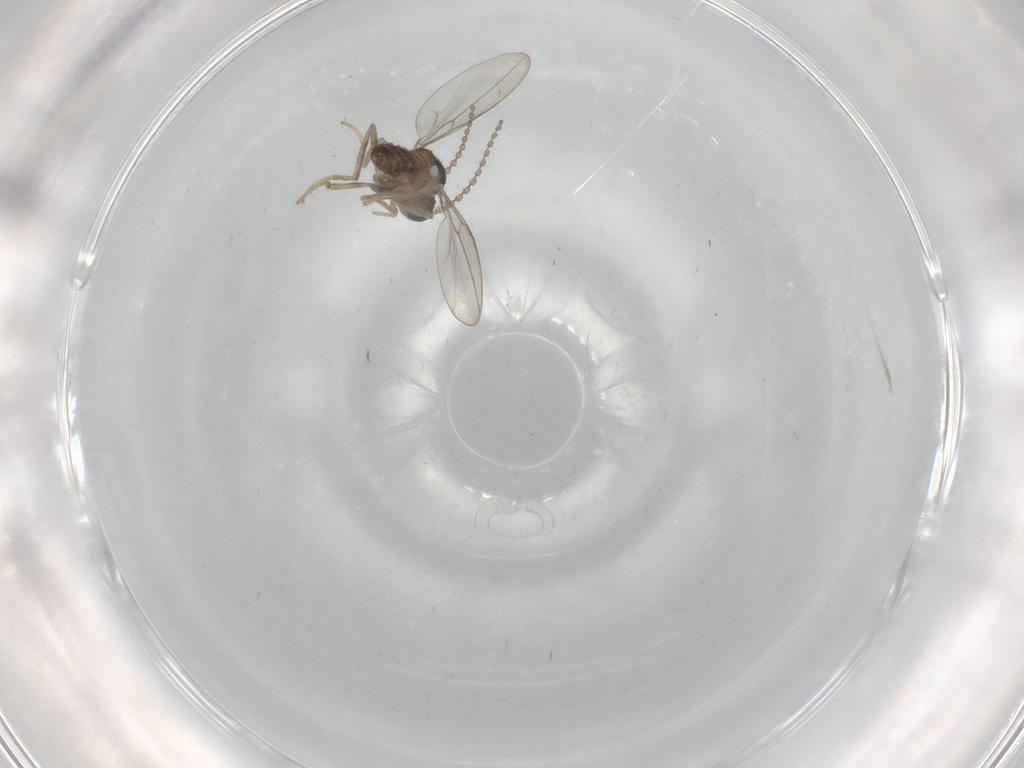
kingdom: Animalia
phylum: Arthropoda
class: Insecta
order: Diptera
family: Cecidomyiidae
